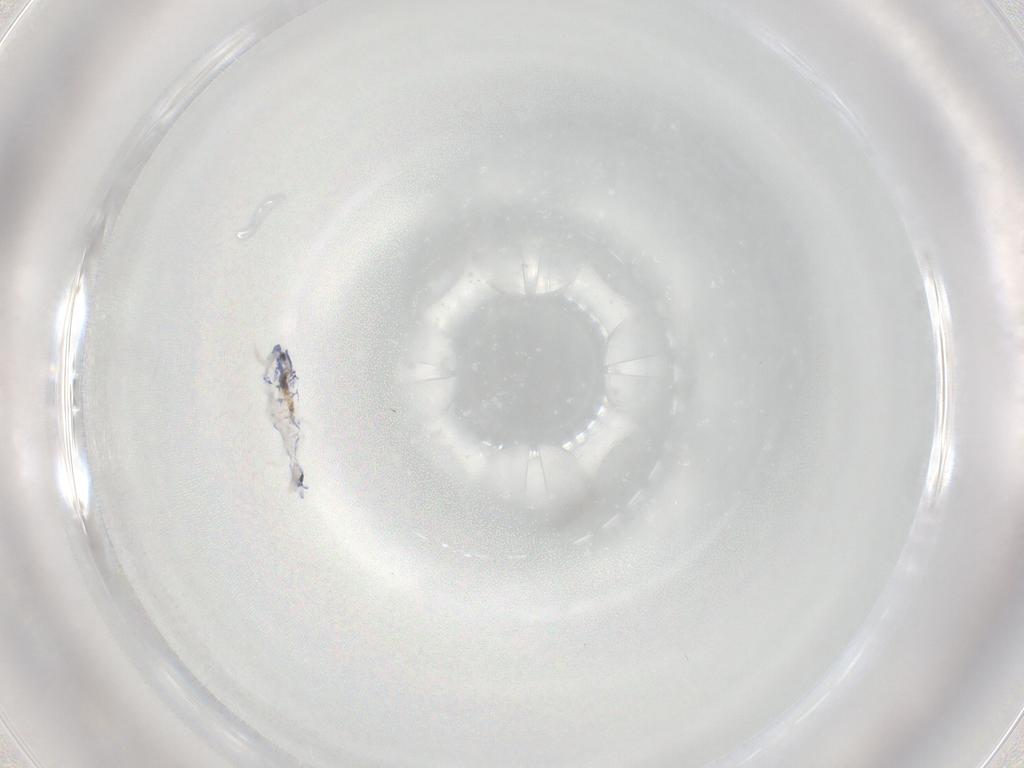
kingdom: Animalia
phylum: Arthropoda
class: Collembola
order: Entomobryomorpha
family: Entomobryidae
